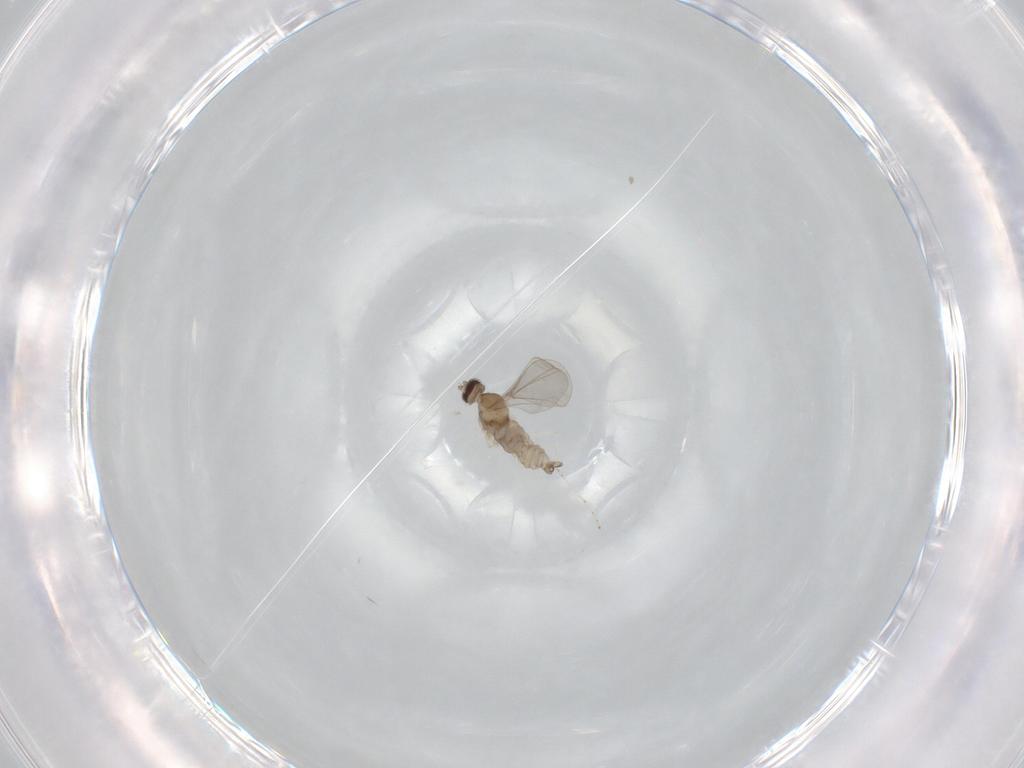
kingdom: Animalia
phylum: Arthropoda
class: Insecta
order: Diptera
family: Cecidomyiidae
